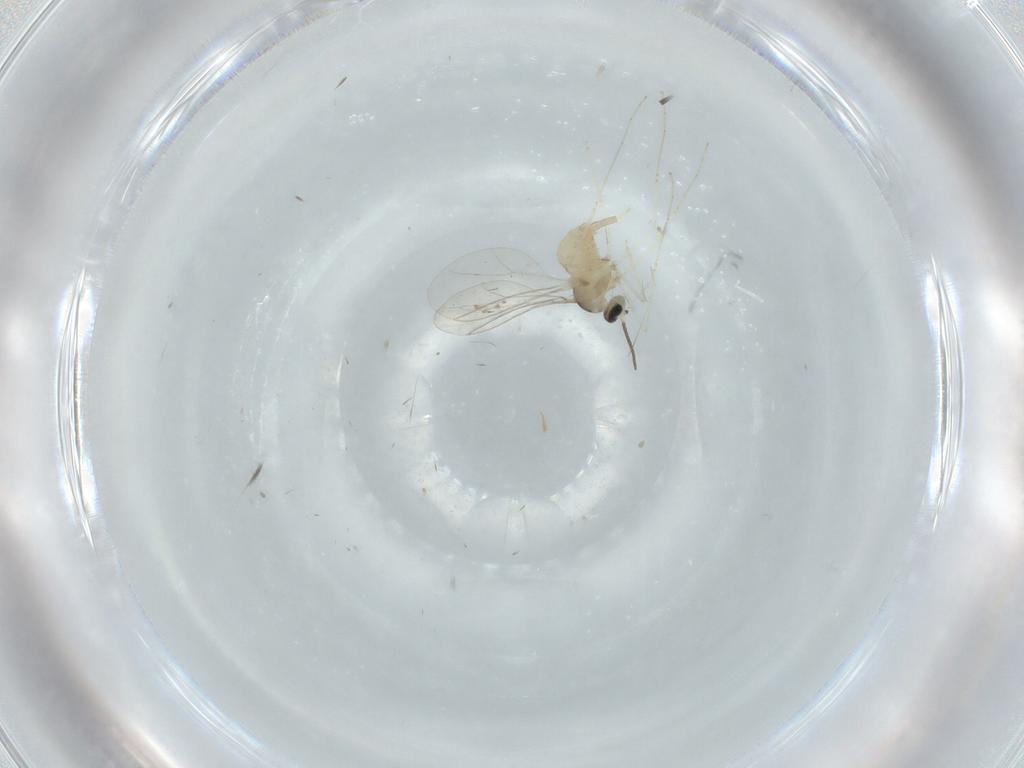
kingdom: Animalia
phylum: Arthropoda
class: Insecta
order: Diptera
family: Cecidomyiidae
